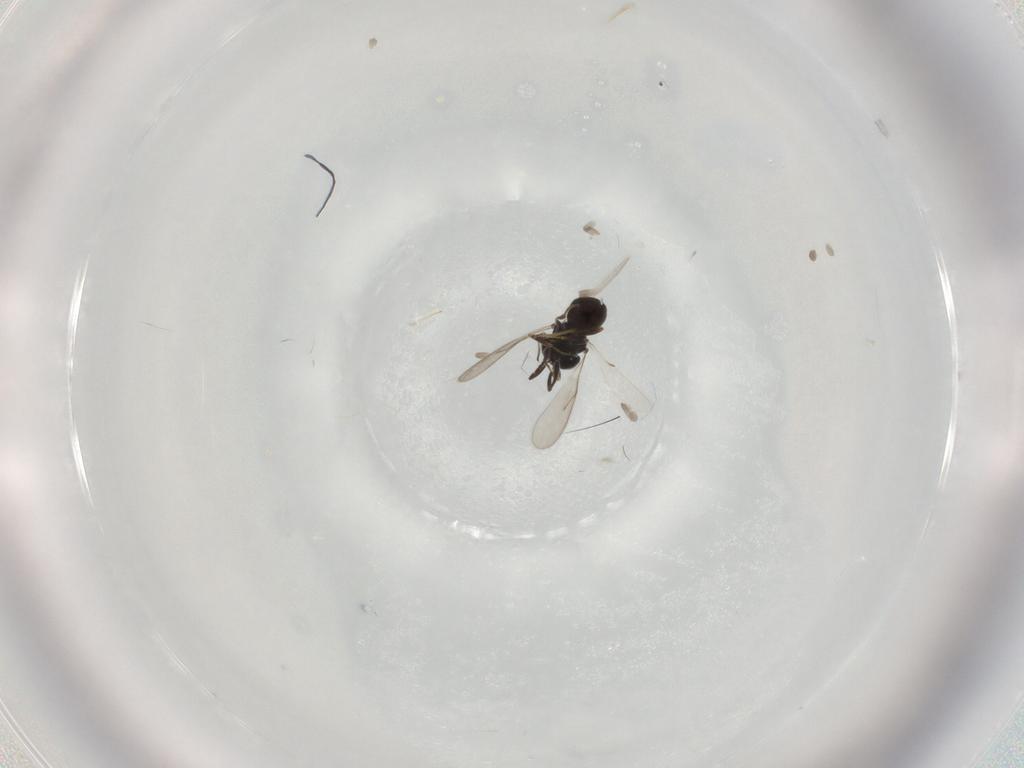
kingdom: Animalia
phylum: Arthropoda
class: Insecta
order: Hymenoptera
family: Scelionidae
